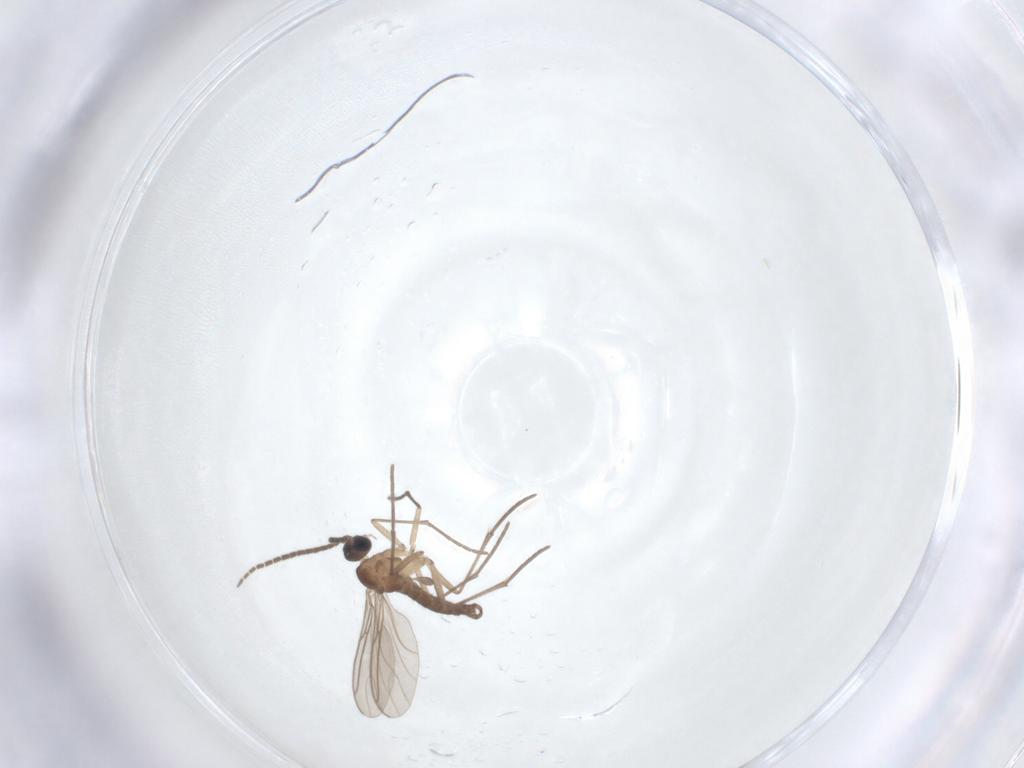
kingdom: Animalia
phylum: Arthropoda
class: Insecta
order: Diptera
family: Sciaridae
